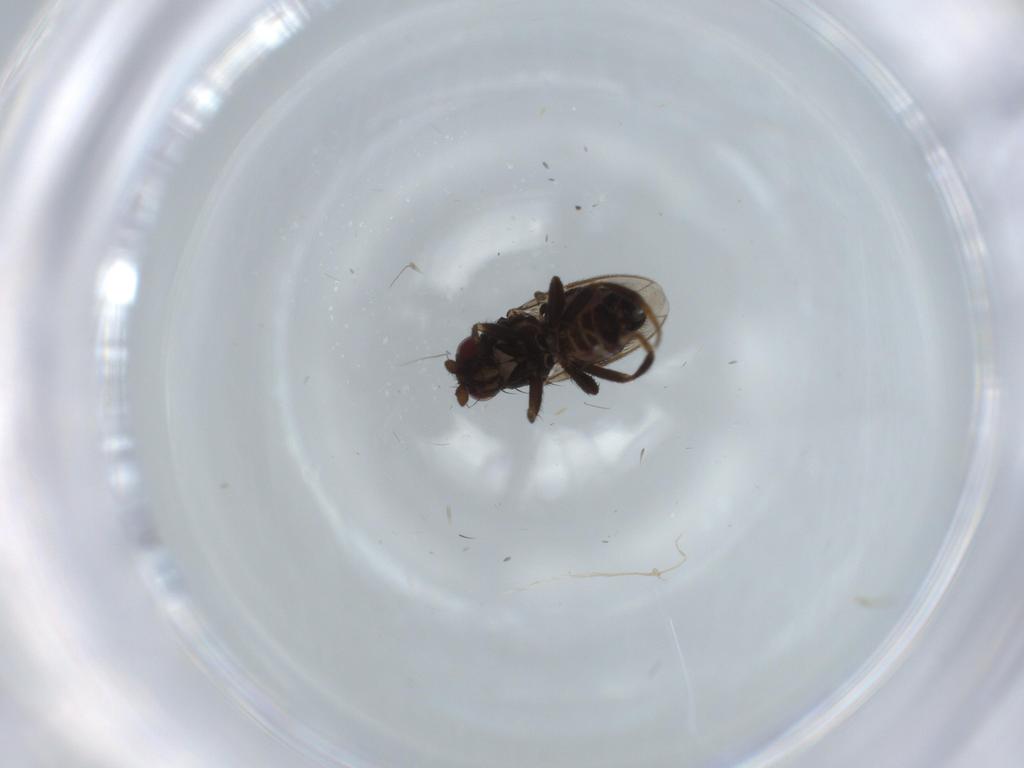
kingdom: Animalia
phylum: Arthropoda
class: Insecta
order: Diptera
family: Sphaeroceridae
